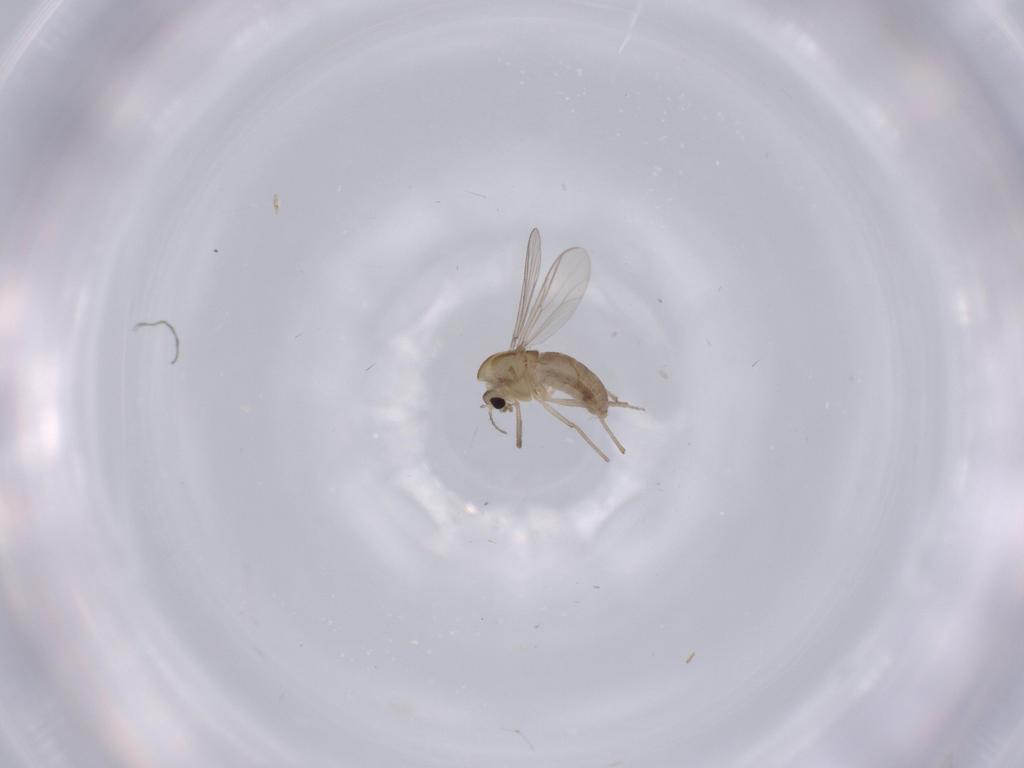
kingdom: Animalia
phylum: Arthropoda
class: Insecta
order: Diptera
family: Chironomidae
